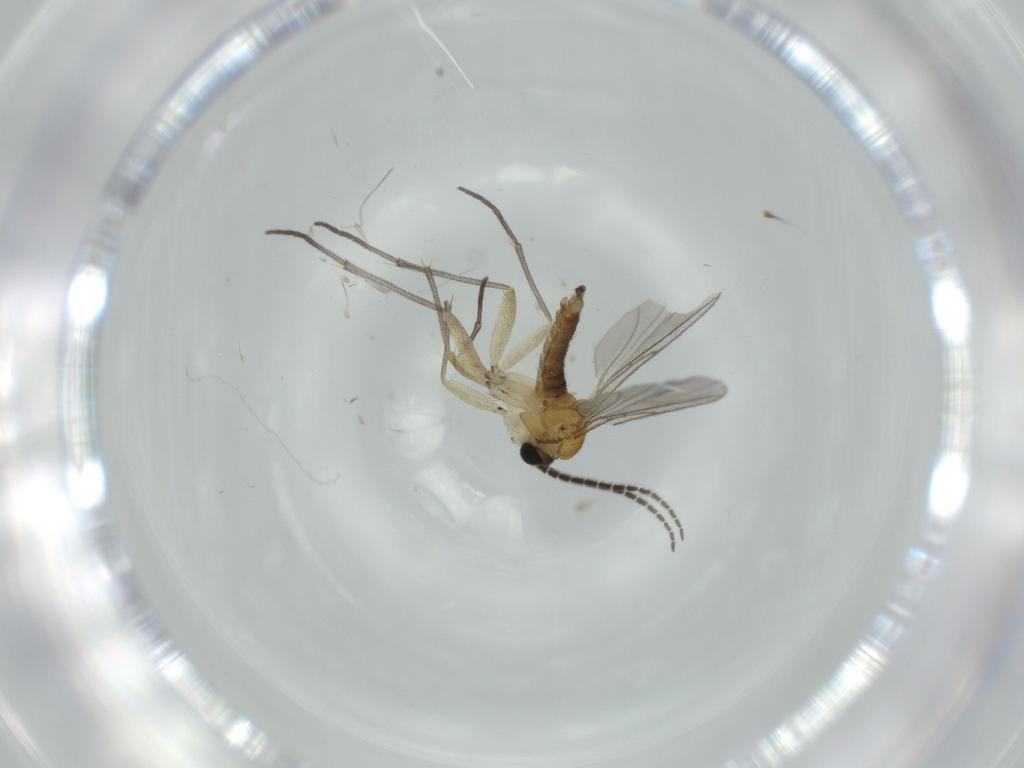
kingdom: Animalia
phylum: Arthropoda
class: Insecta
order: Diptera
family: Sciaridae
